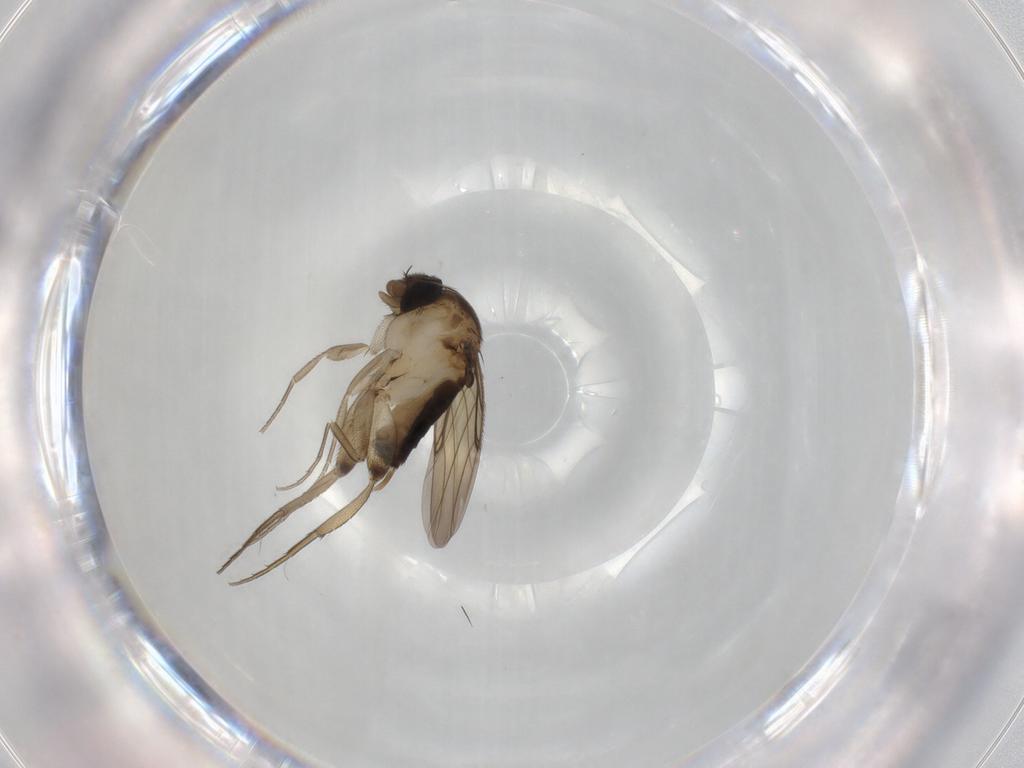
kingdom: Animalia
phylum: Arthropoda
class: Insecta
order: Diptera
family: Phoridae
